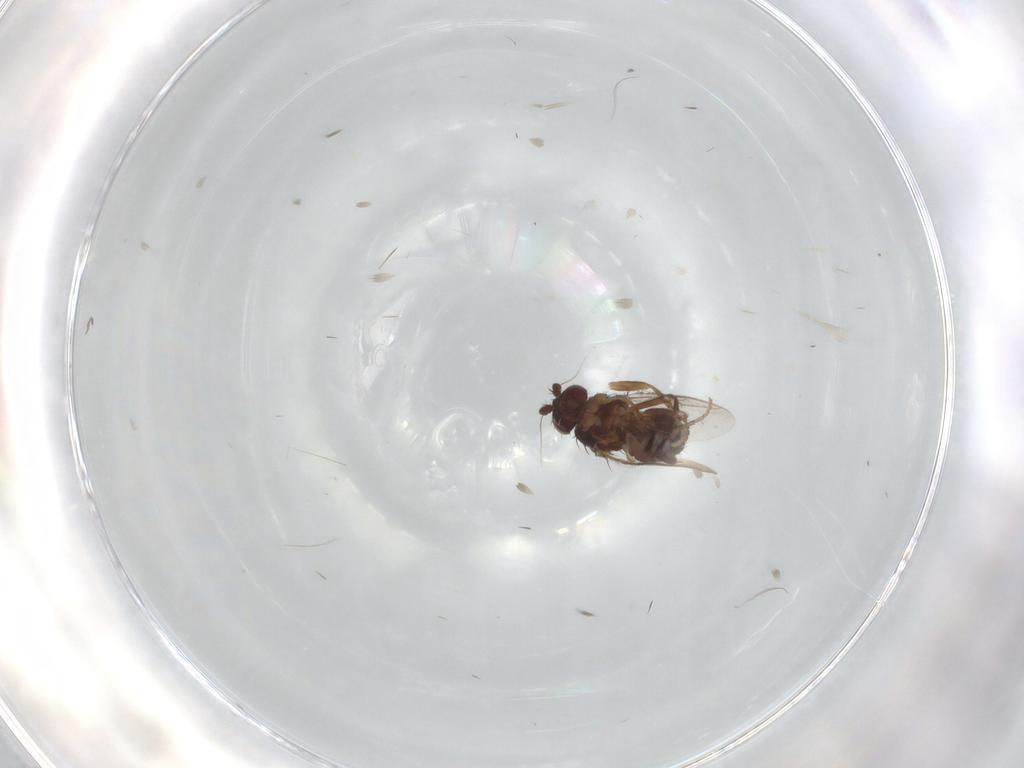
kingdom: Animalia
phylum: Arthropoda
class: Insecta
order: Diptera
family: Sphaeroceridae
